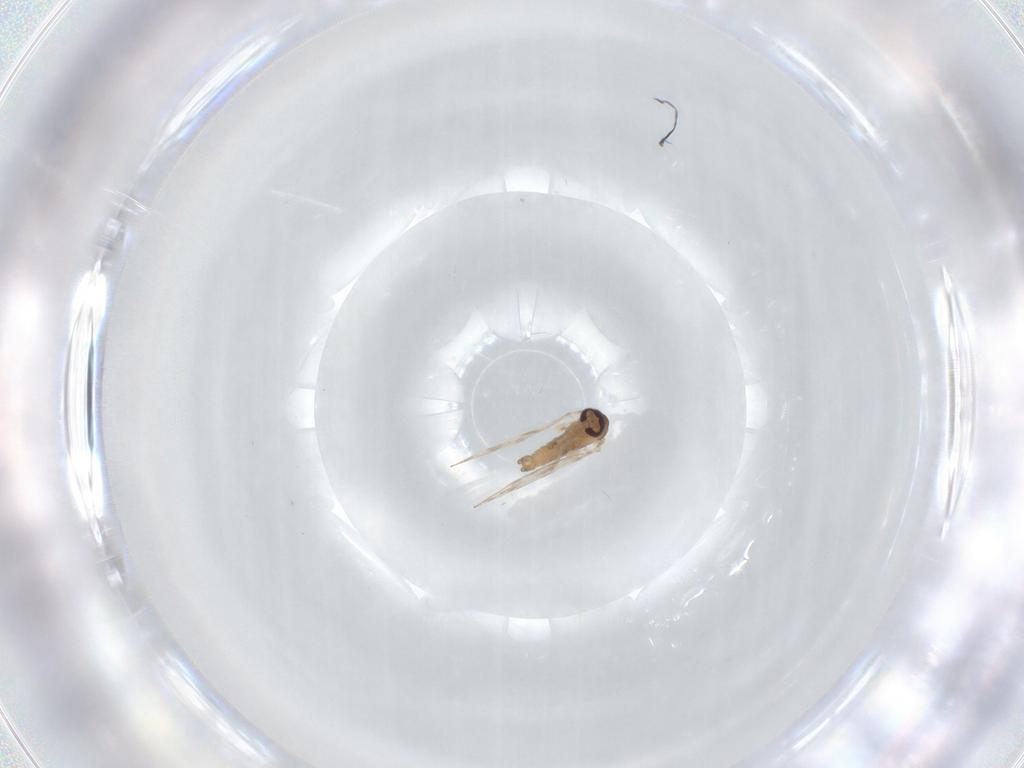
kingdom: Animalia
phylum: Arthropoda
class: Insecta
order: Diptera
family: Psychodidae
